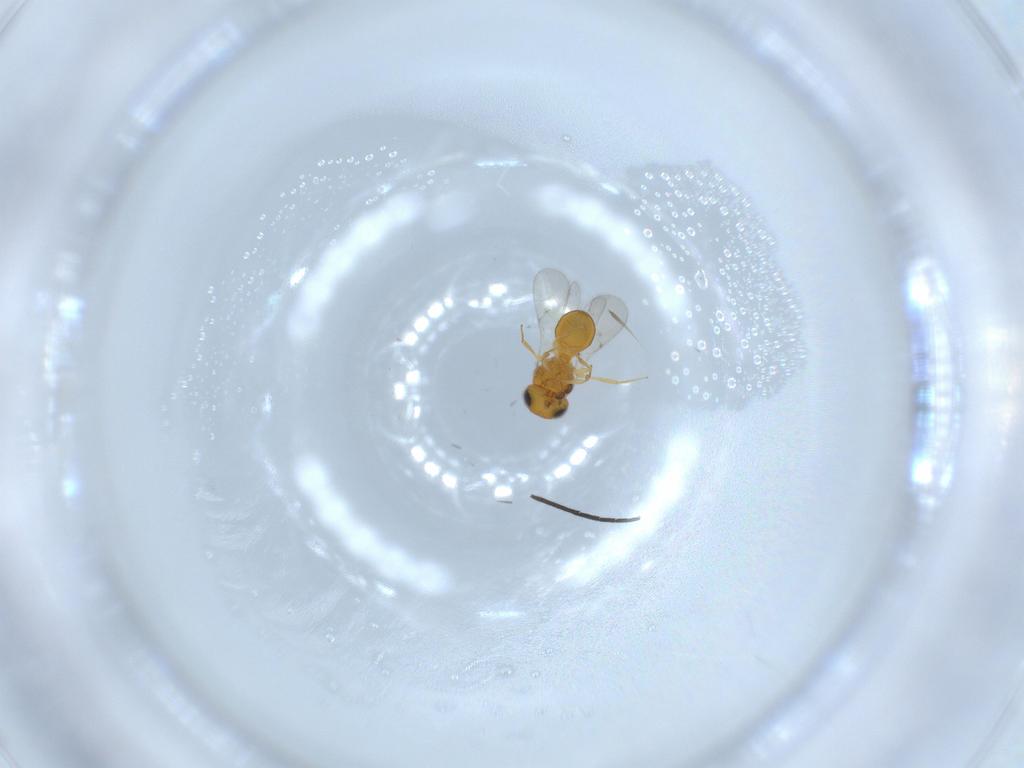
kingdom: Animalia
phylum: Arthropoda
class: Insecta
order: Hymenoptera
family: Scelionidae
